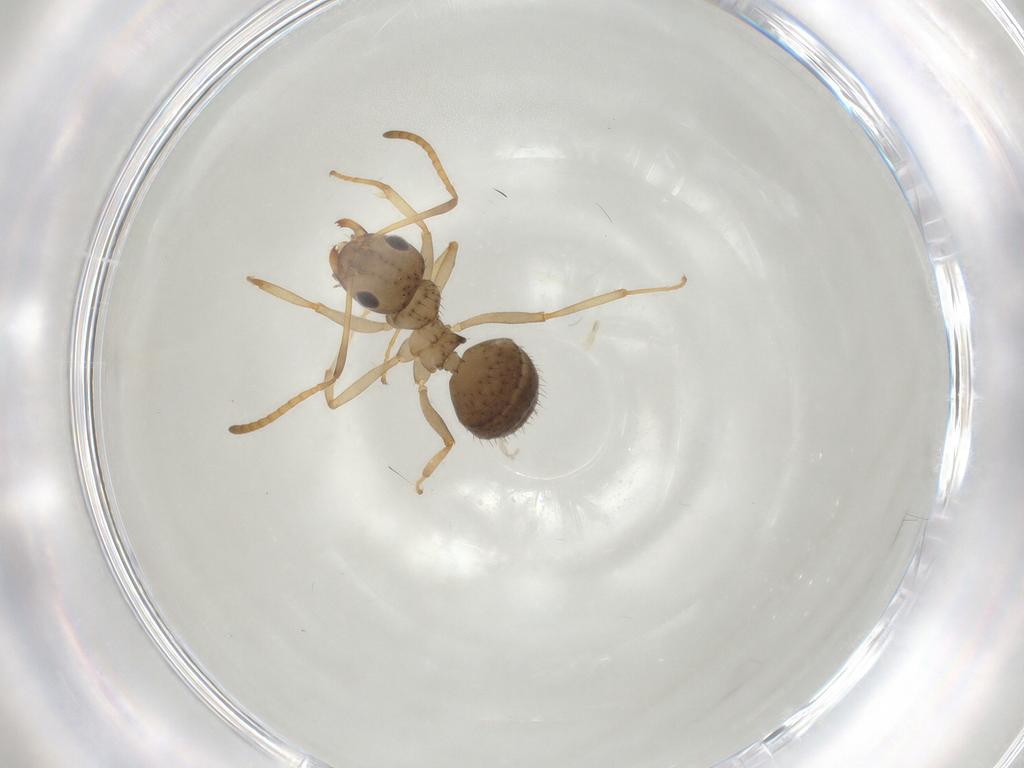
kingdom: Animalia
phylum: Arthropoda
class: Insecta
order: Hymenoptera
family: Formicidae
